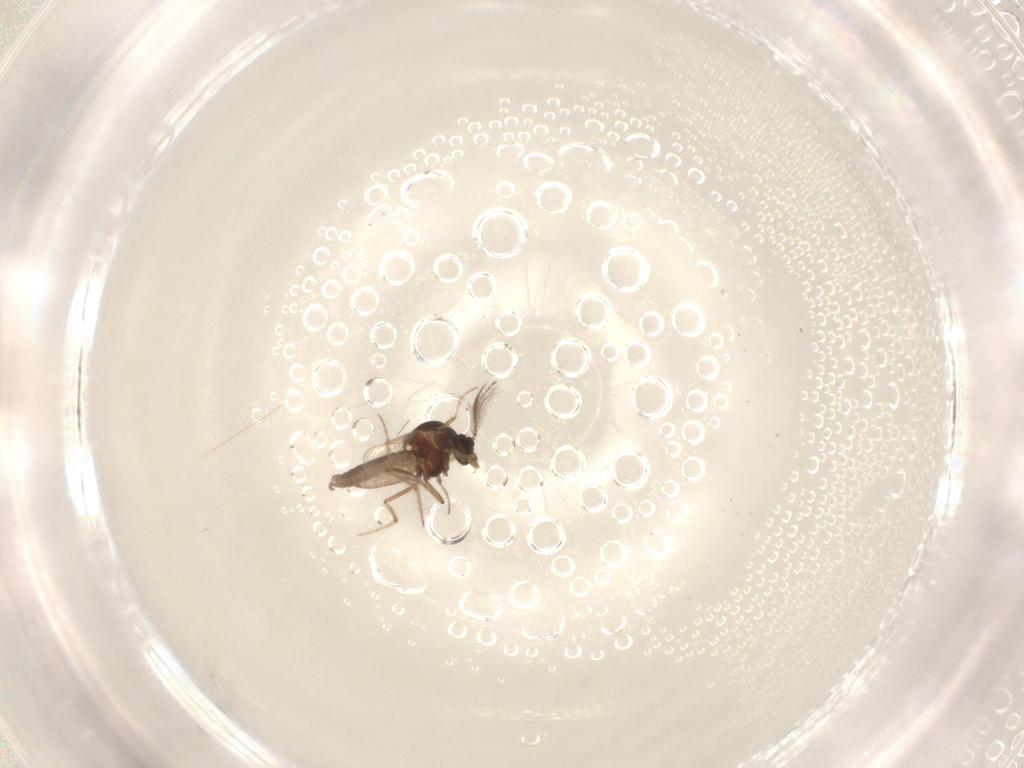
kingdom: Animalia
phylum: Arthropoda
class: Insecta
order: Diptera
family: Ceratopogonidae
